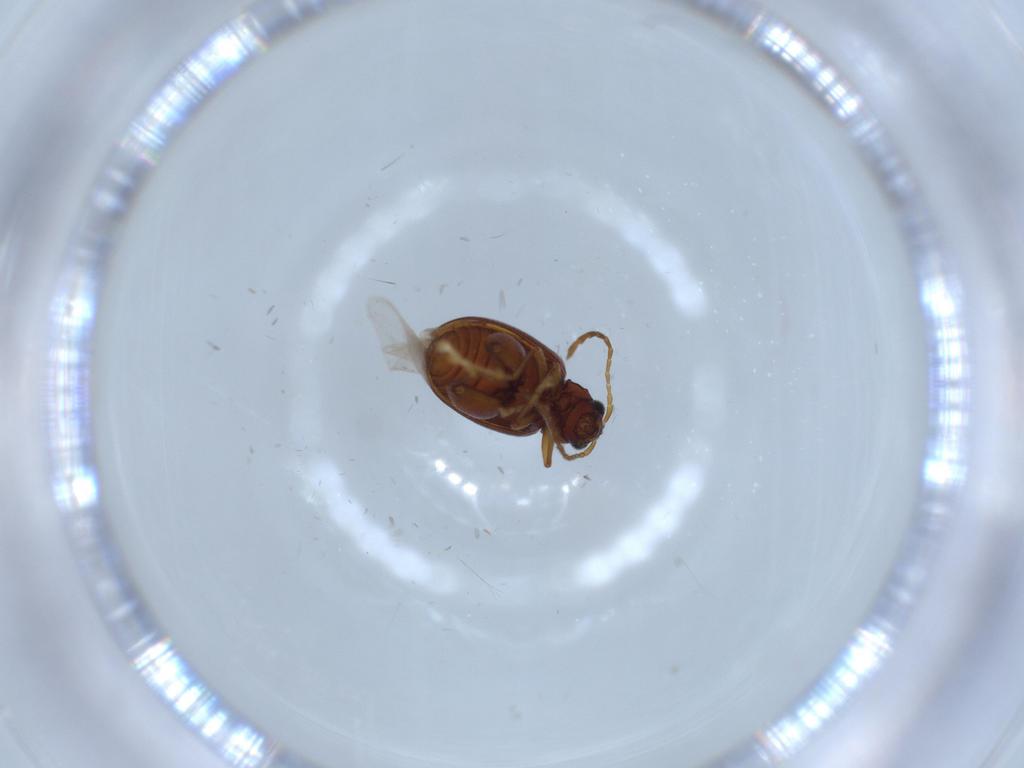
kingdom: Animalia
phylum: Arthropoda
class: Insecta
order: Coleoptera
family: Chrysomelidae
